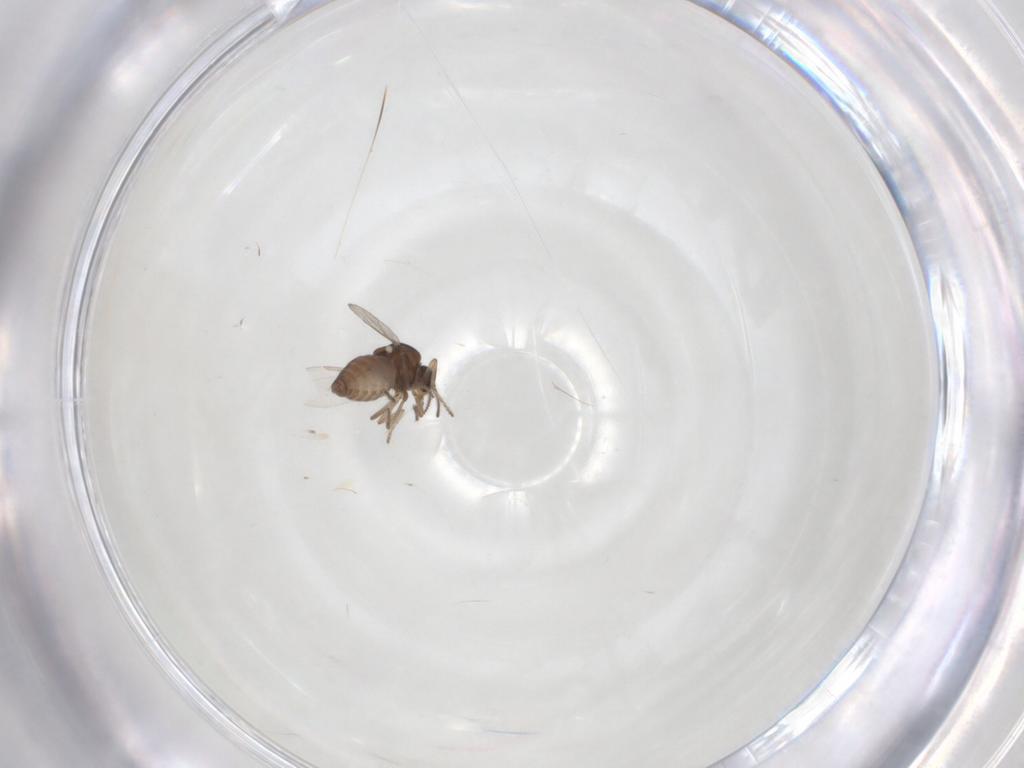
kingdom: Animalia
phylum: Arthropoda
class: Insecta
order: Diptera
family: Ceratopogonidae
